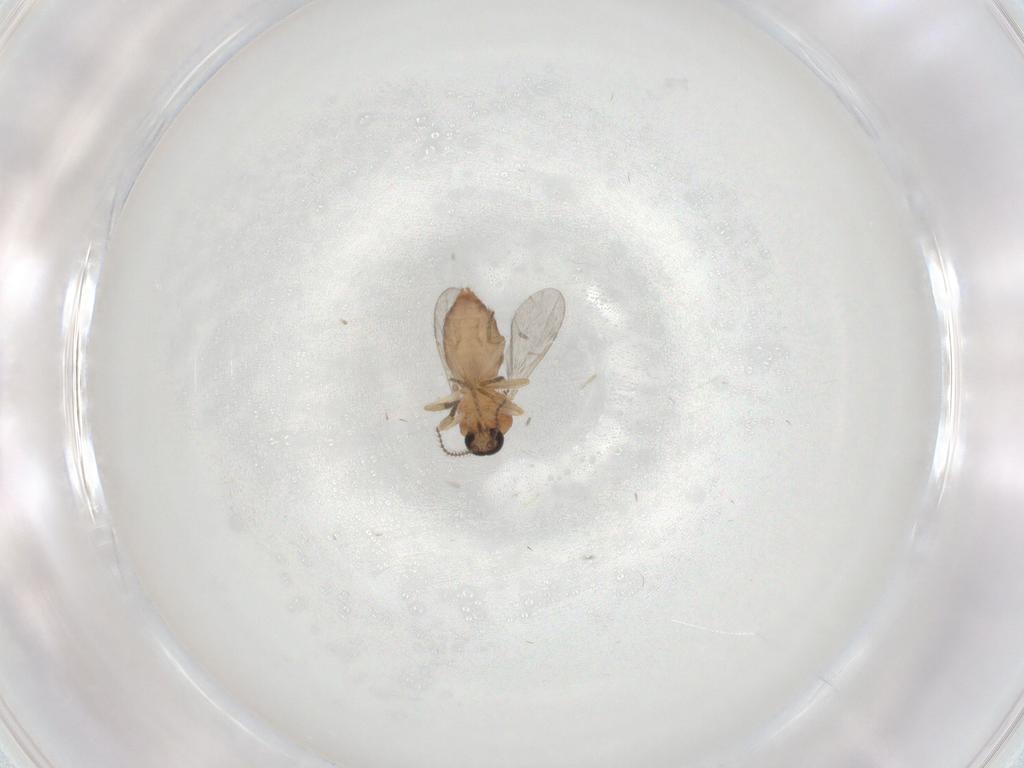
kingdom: Animalia
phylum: Arthropoda
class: Insecta
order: Diptera
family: Ceratopogonidae
